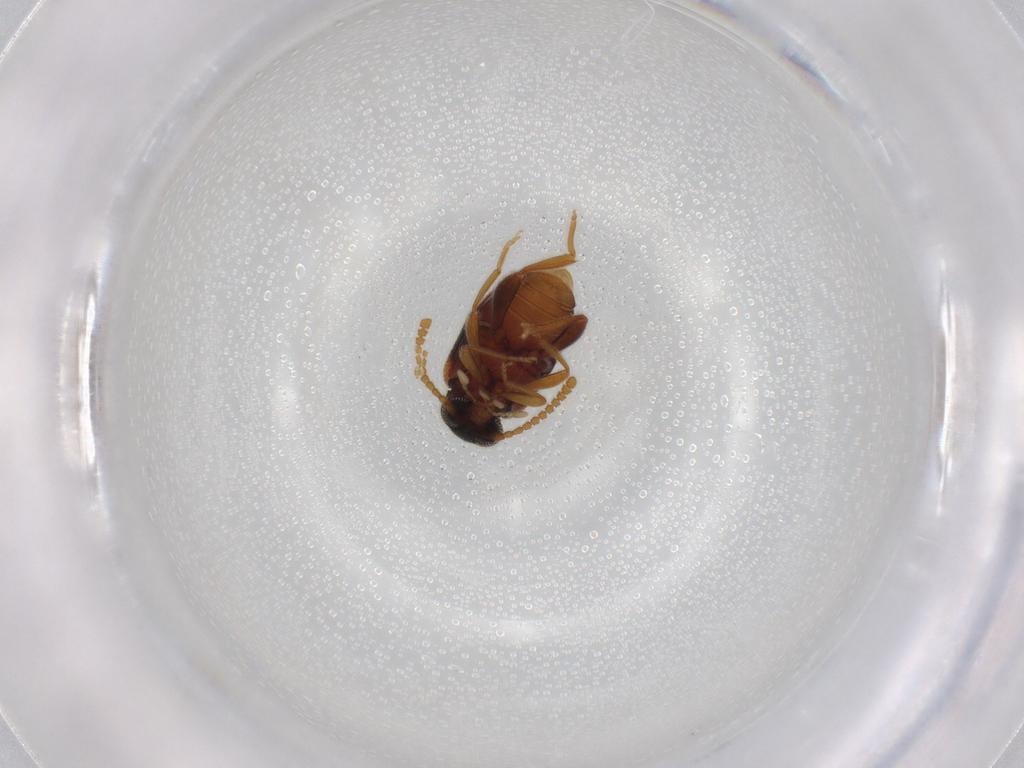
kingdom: Animalia
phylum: Arthropoda
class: Insecta
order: Coleoptera
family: Aderidae
